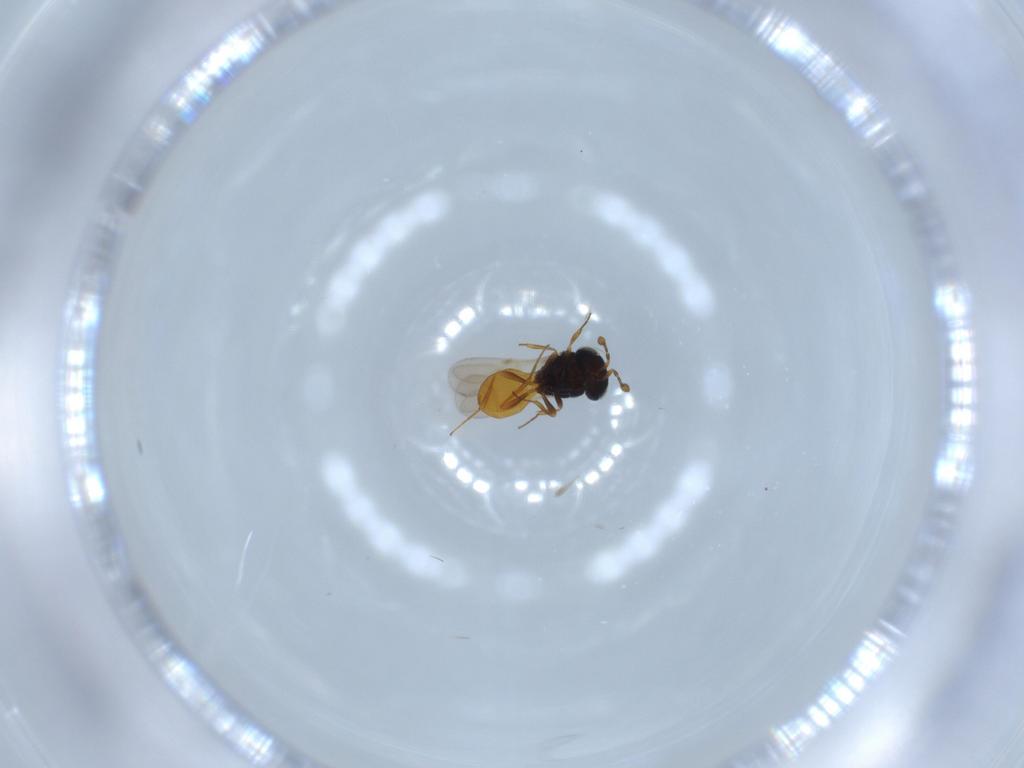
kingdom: Animalia
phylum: Arthropoda
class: Insecta
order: Hymenoptera
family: Scelionidae
